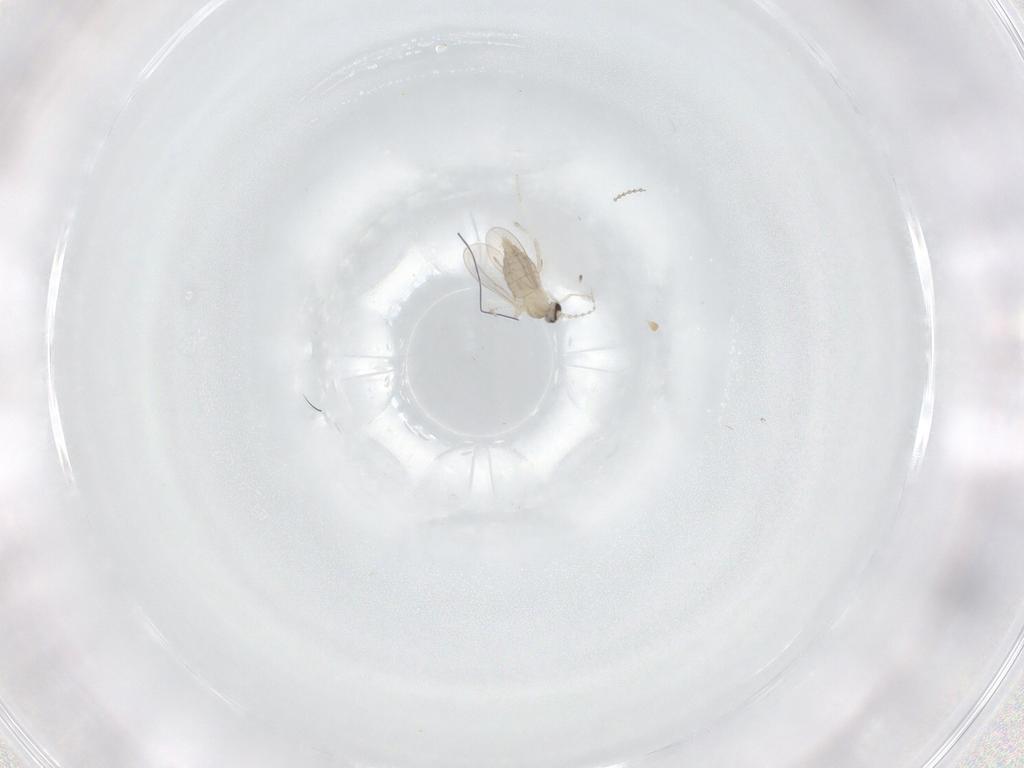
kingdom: Animalia
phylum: Arthropoda
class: Insecta
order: Diptera
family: Cecidomyiidae
